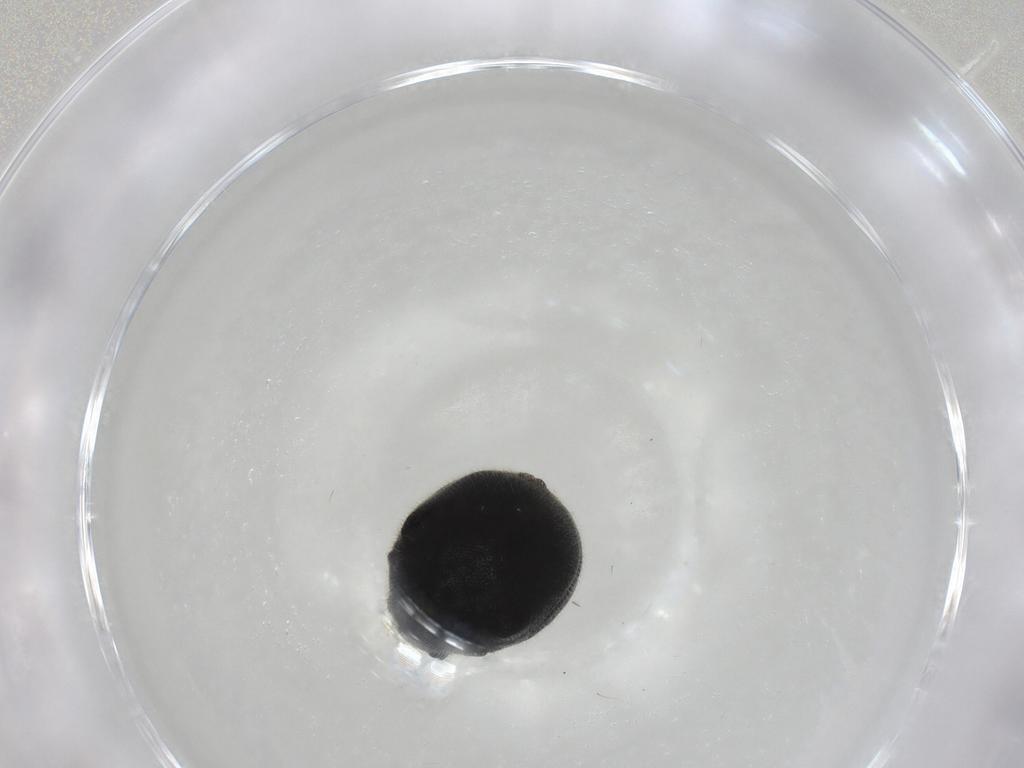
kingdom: Animalia
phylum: Arthropoda
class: Insecta
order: Coleoptera
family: Ptinidae
